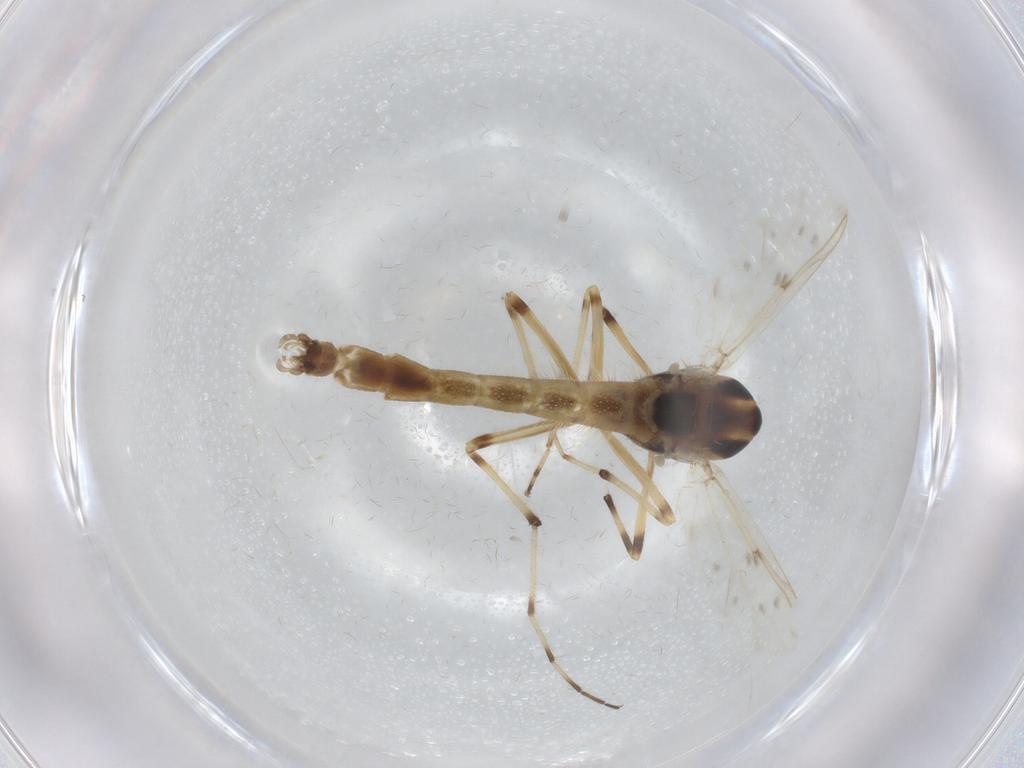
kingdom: Animalia
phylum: Arthropoda
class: Insecta
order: Diptera
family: Chironomidae
